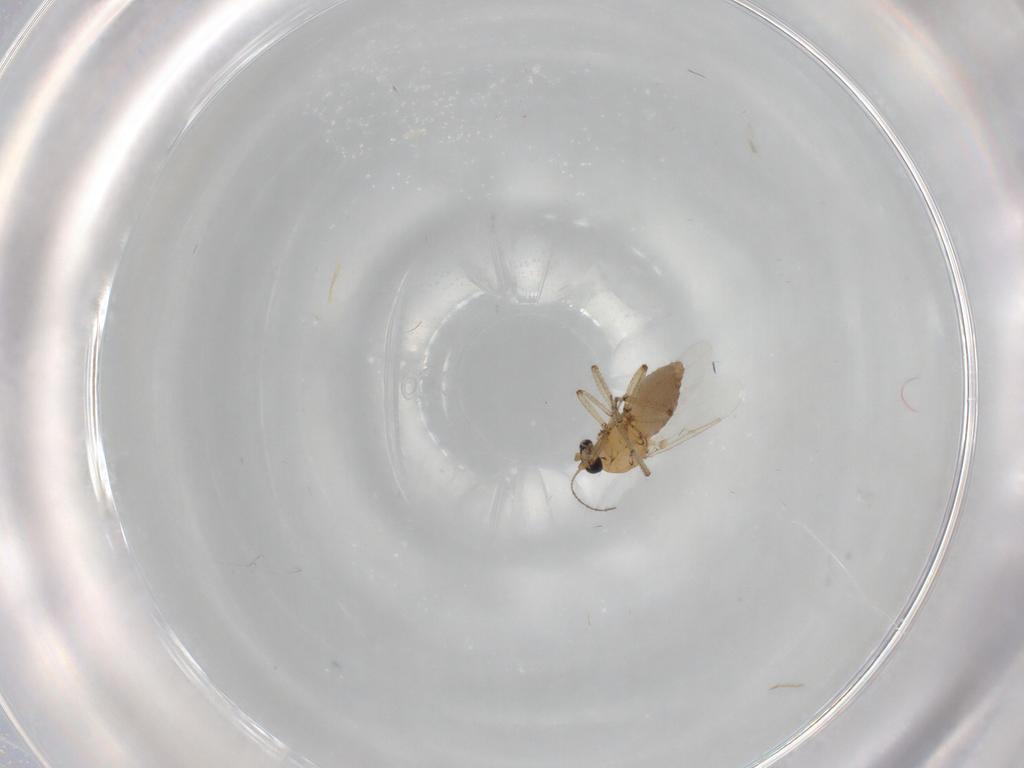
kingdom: Animalia
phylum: Arthropoda
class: Insecta
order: Diptera
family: Ceratopogonidae
